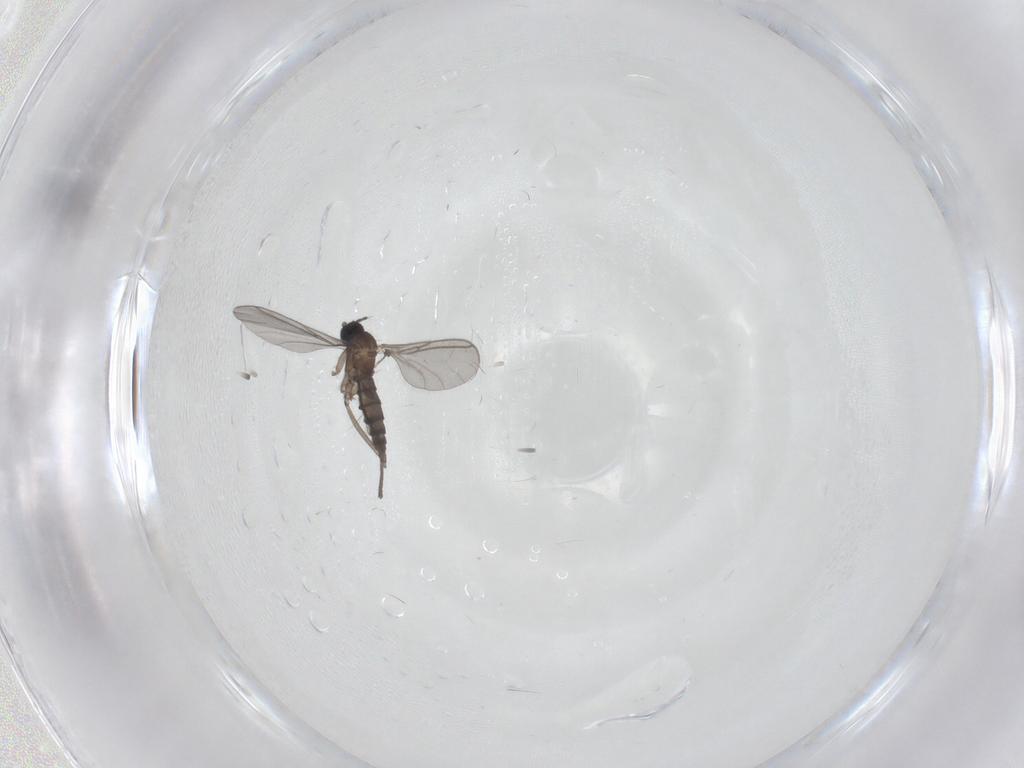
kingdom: Animalia
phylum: Arthropoda
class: Insecta
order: Diptera
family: Sciaridae
